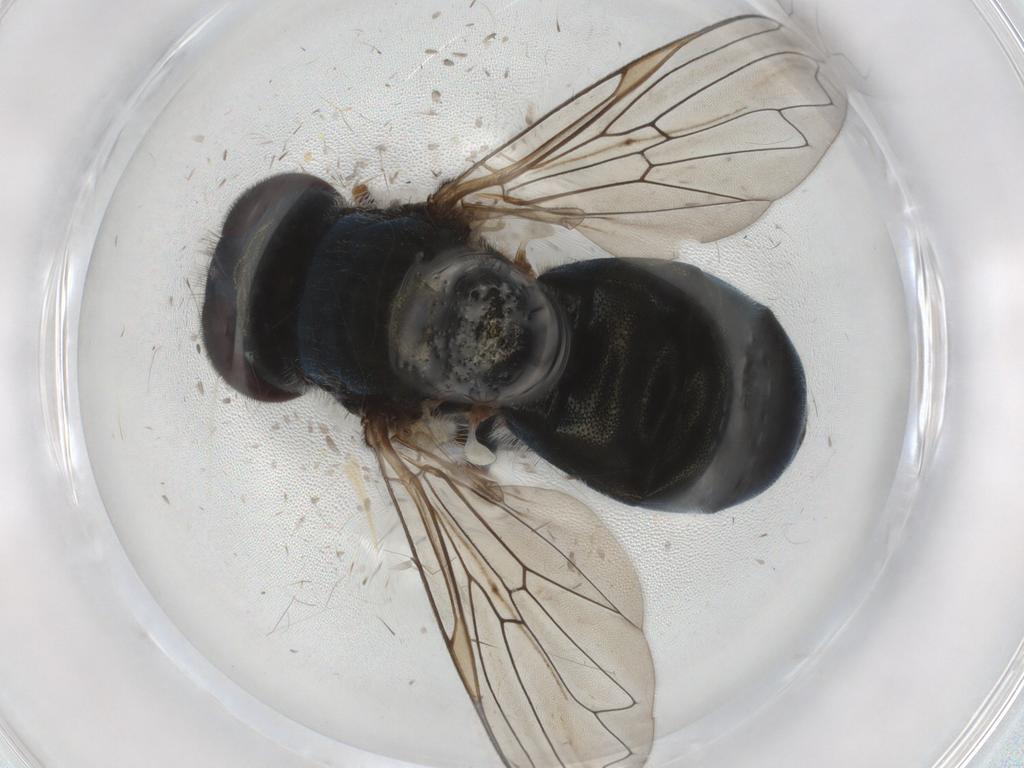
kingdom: Animalia
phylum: Arthropoda
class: Insecta
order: Diptera
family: Syrphidae
